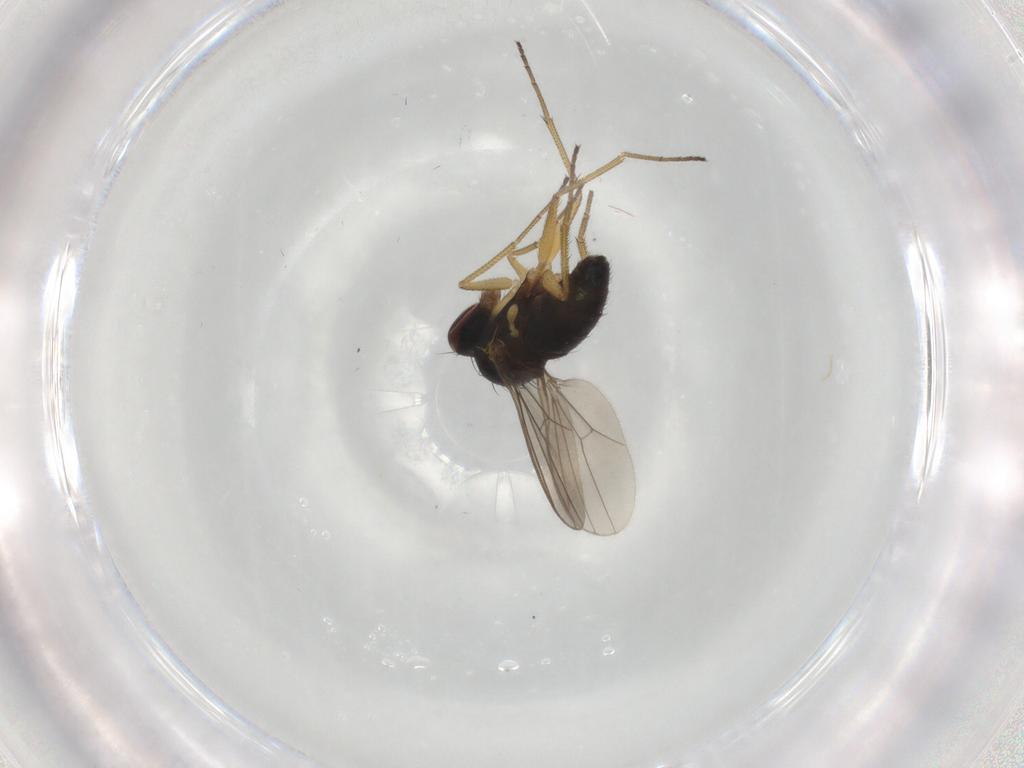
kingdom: Animalia
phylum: Arthropoda
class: Insecta
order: Diptera
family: Dolichopodidae
